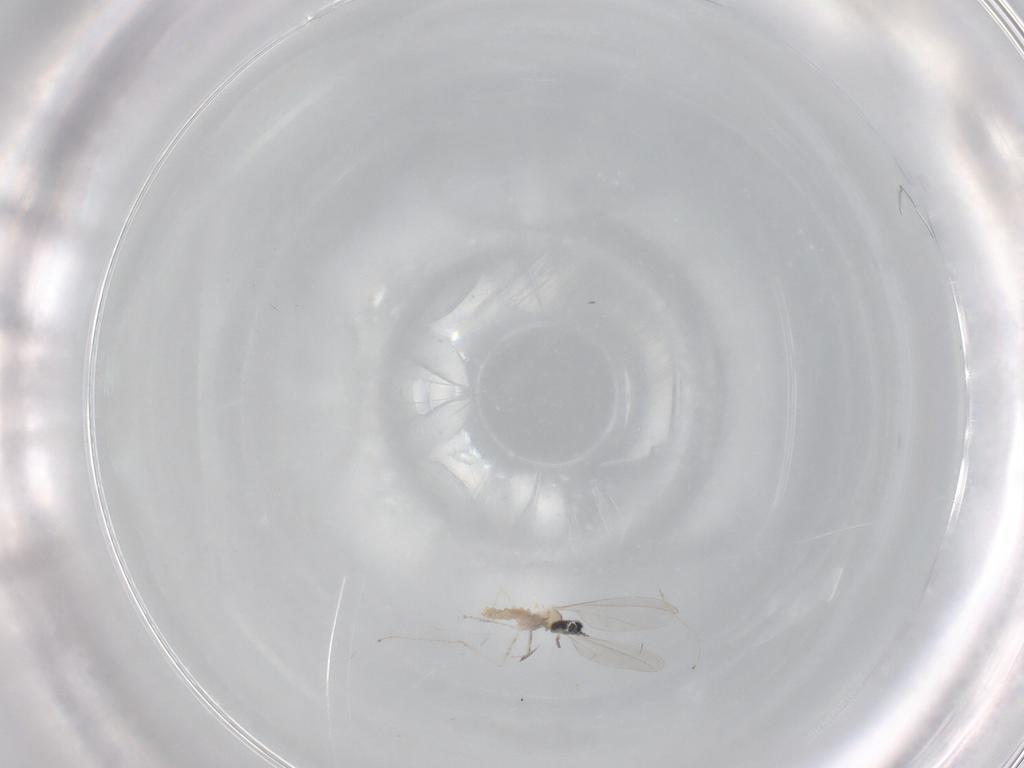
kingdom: Animalia
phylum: Arthropoda
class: Insecta
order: Diptera
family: Cecidomyiidae
